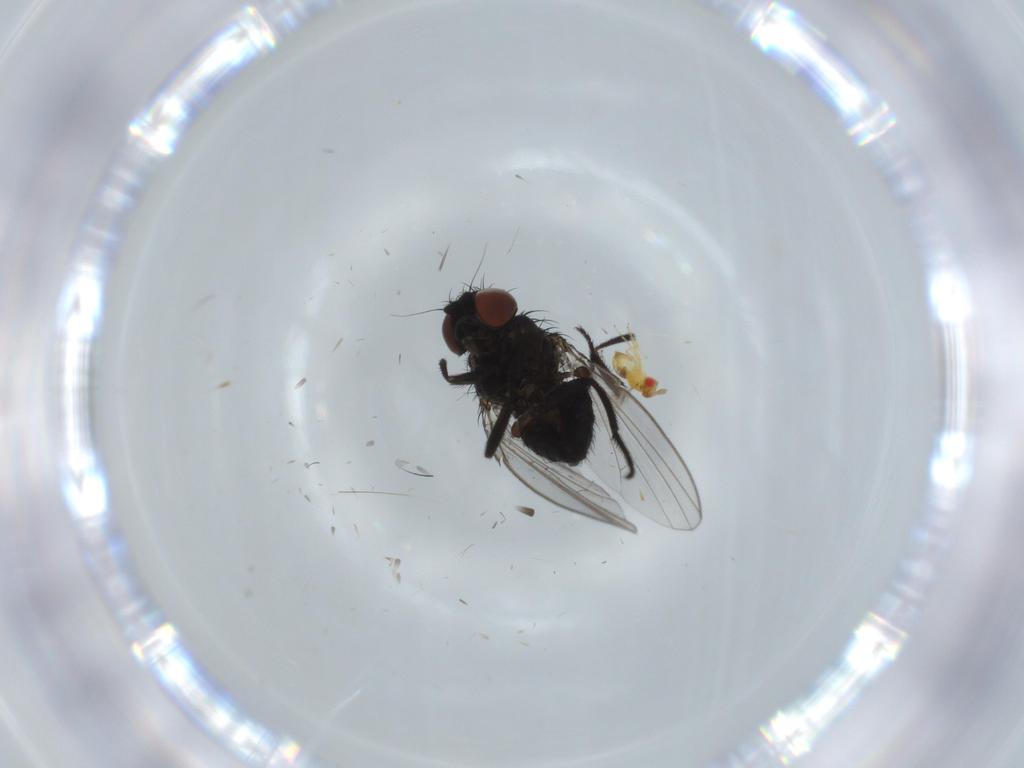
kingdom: Animalia
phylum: Arthropoda
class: Insecta
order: Diptera
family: Milichiidae
